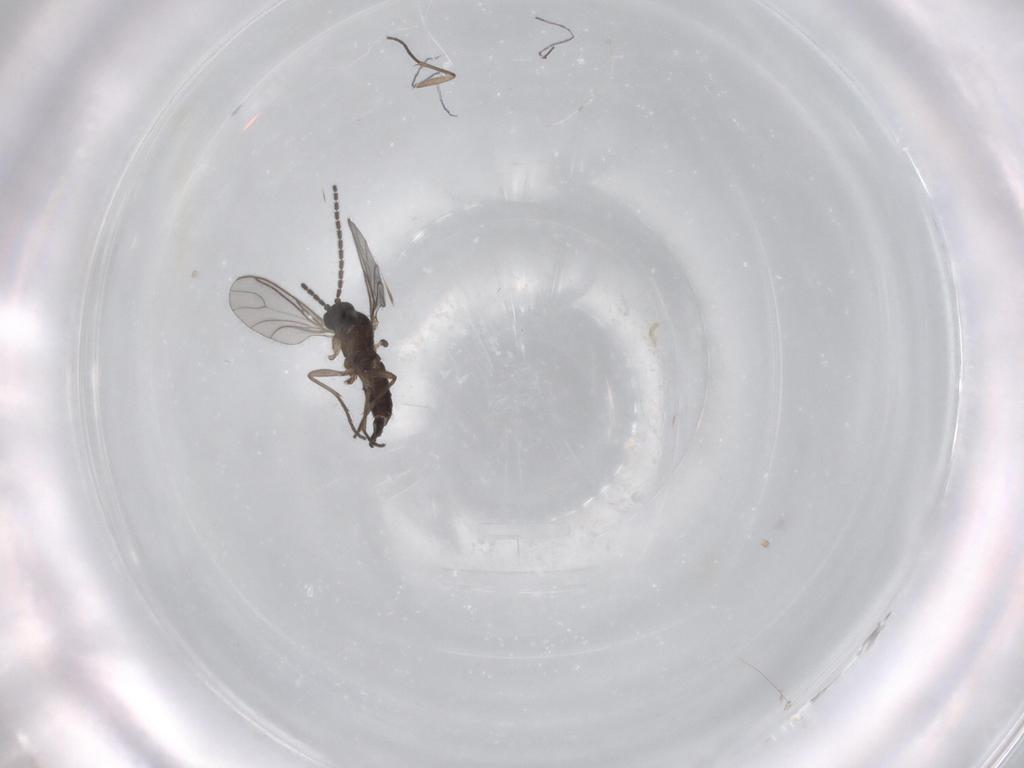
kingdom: Animalia
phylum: Arthropoda
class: Insecta
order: Diptera
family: Sciaridae
